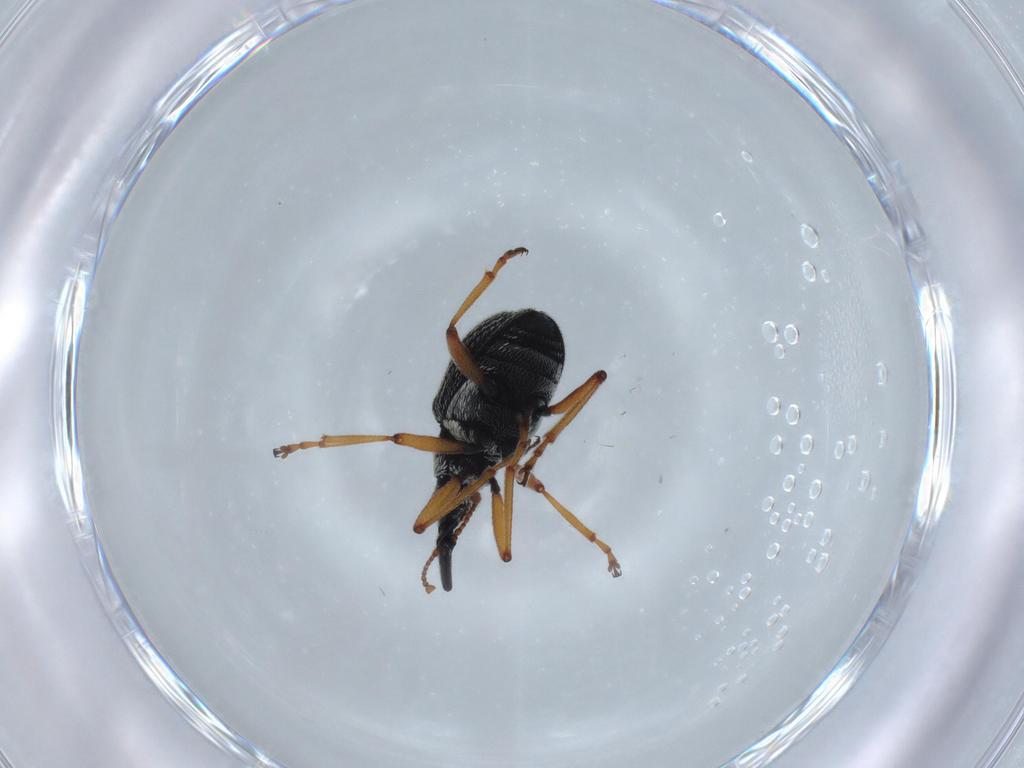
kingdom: Animalia
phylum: Arthropoda
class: Insecta
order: Coleoptera
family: Brentidae
